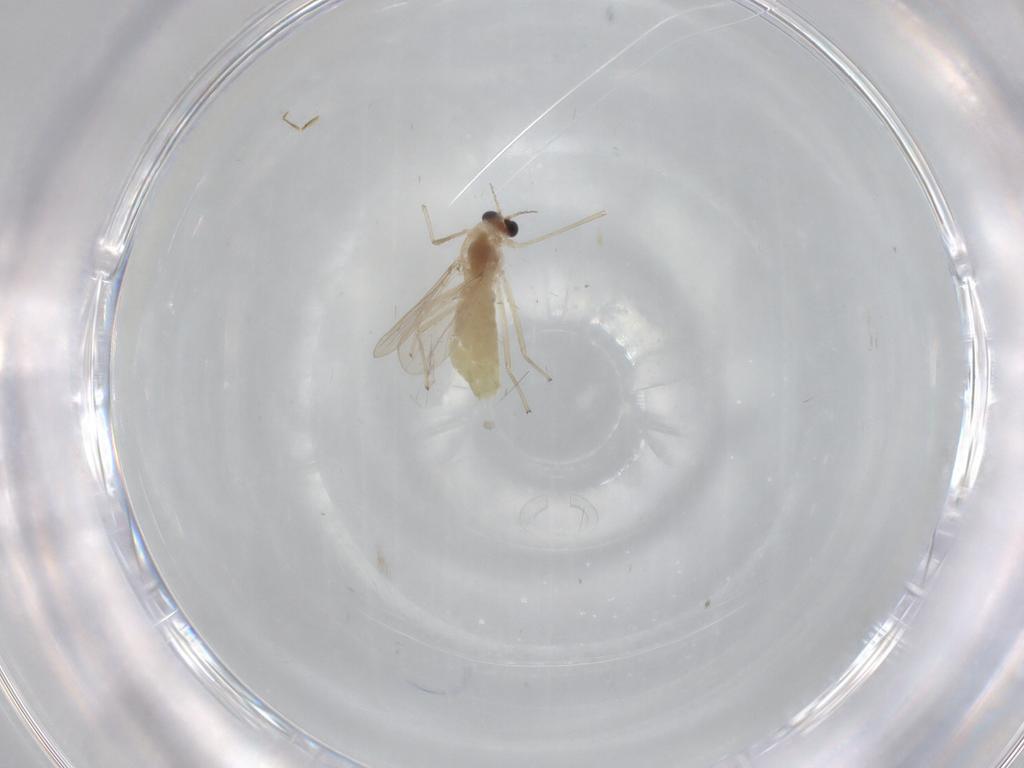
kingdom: Animalia
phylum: Arthropoda
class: Insecta
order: Diptera
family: Chironomidae
